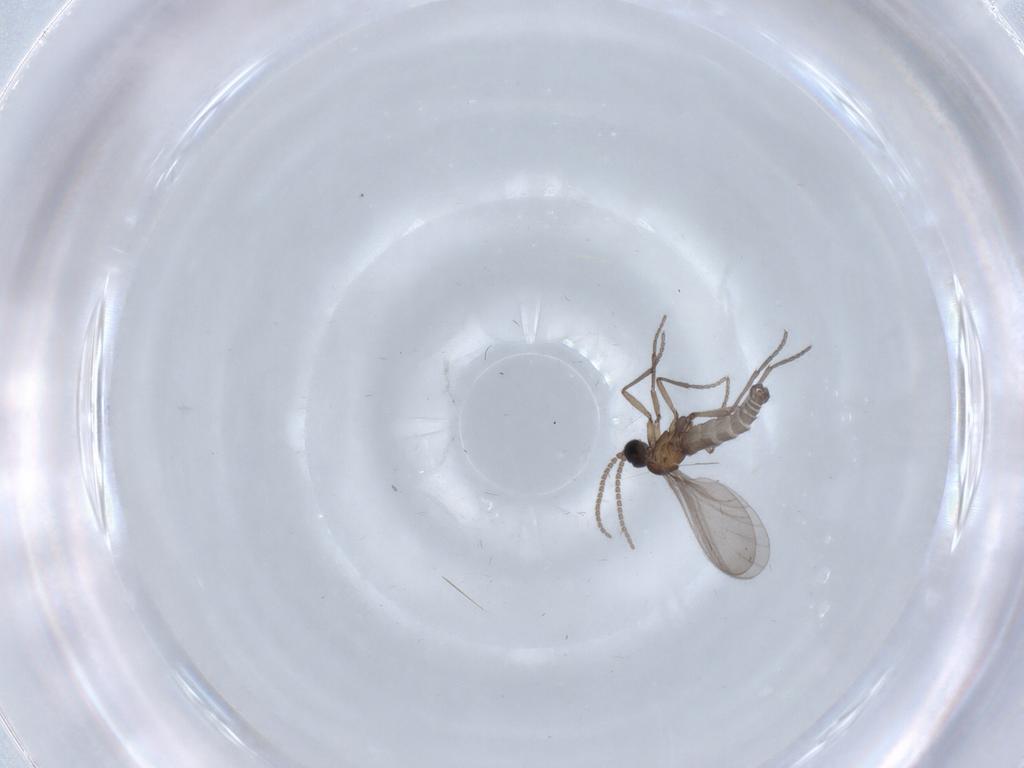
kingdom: Animalia
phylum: Arthropoda
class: Insecta
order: Diptera
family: Sciaridae
